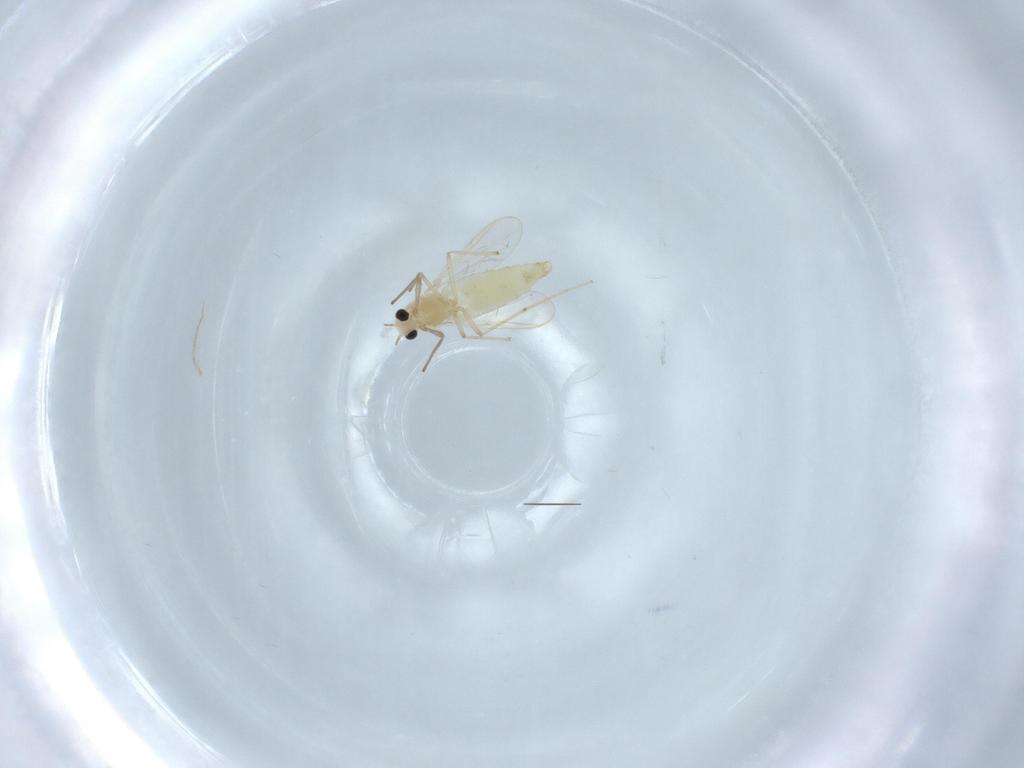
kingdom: Animalia
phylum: Arthropoda
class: Insecta
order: Diptera
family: Chironomidae
